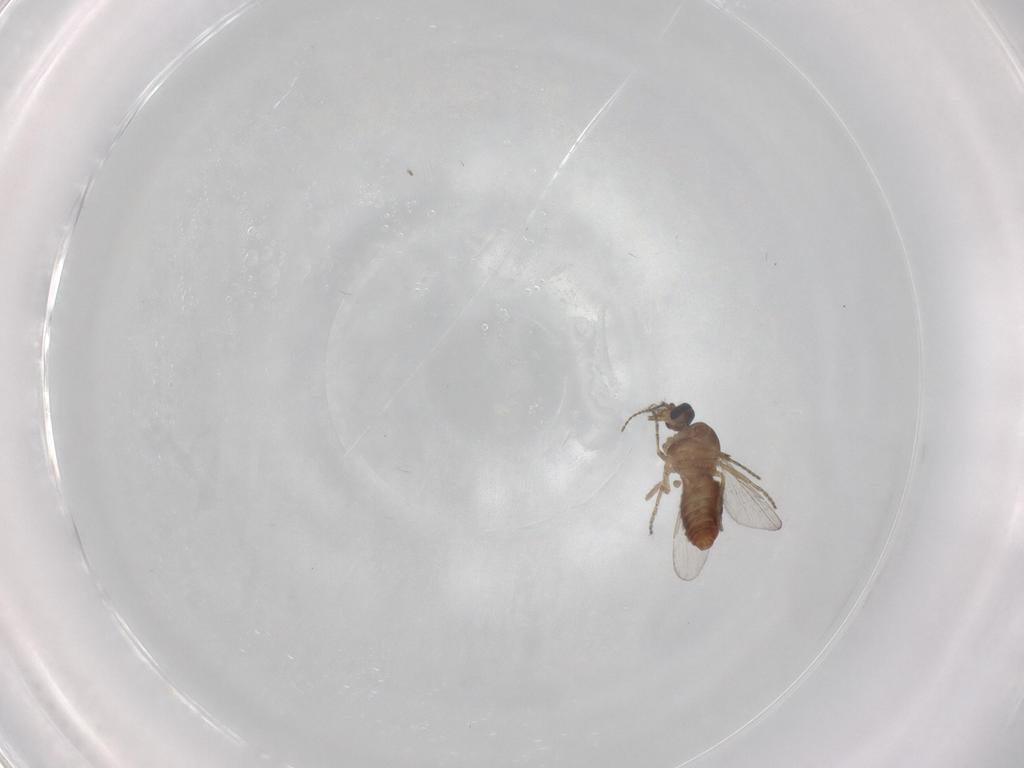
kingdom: Animalia
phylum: Arthropoda
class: Insecta
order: Diptera
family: Ceratopogonidae
